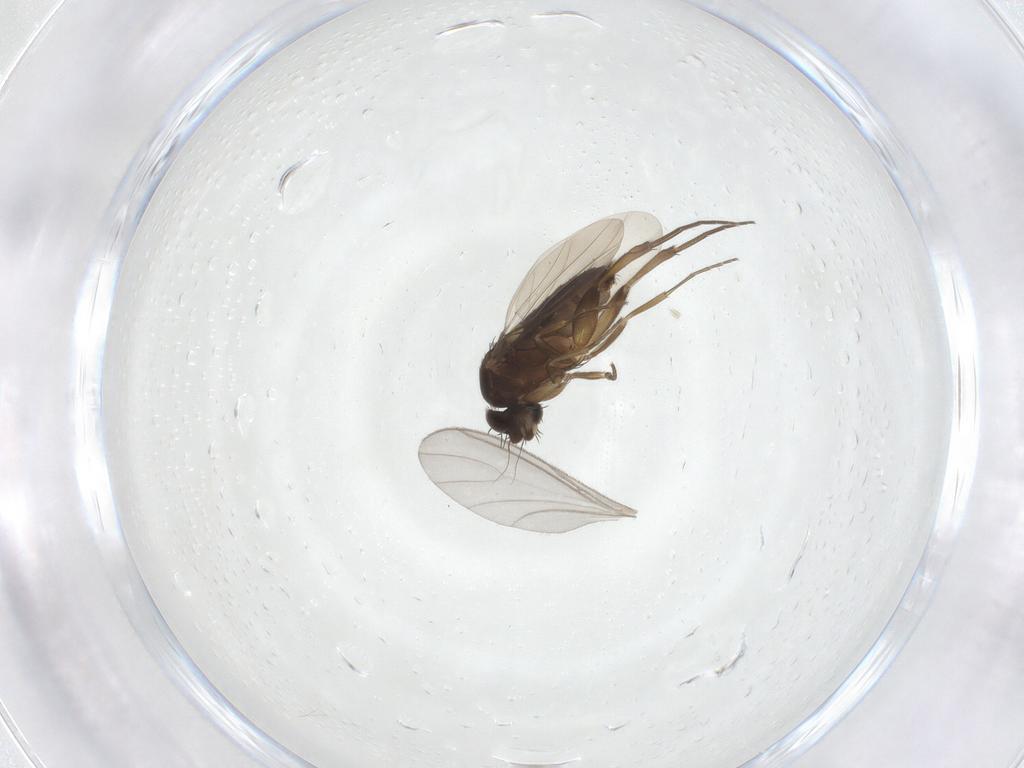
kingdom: Animalia
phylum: Arthropoda
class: Insecta
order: Diptera
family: Phoridae
